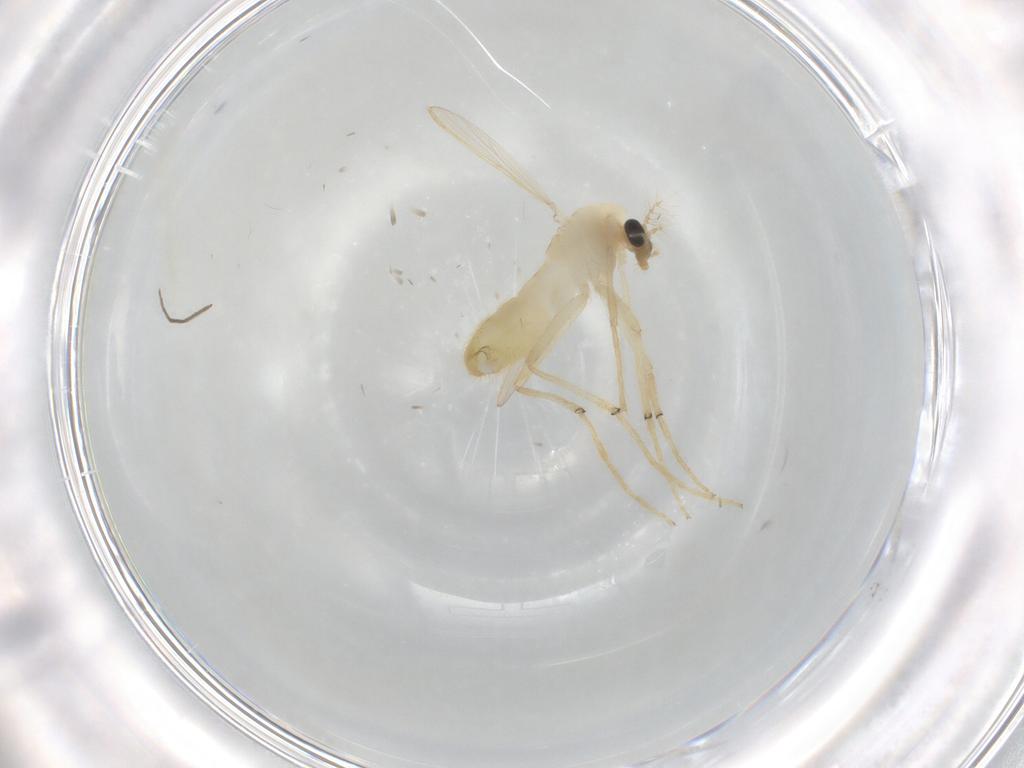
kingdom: Animalia
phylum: Arthropoda
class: Insecta
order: Diptera
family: Chironomidae
